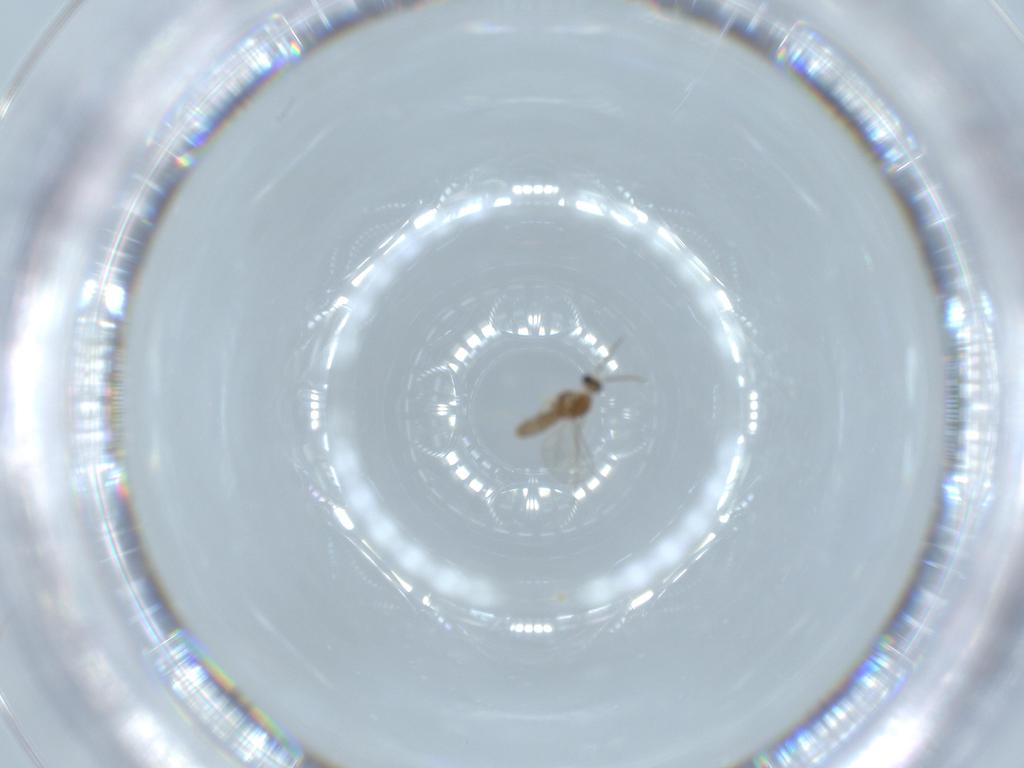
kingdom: Animalia
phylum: Arthropoda
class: Insecta
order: Diptera
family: Cecidomyiidae
